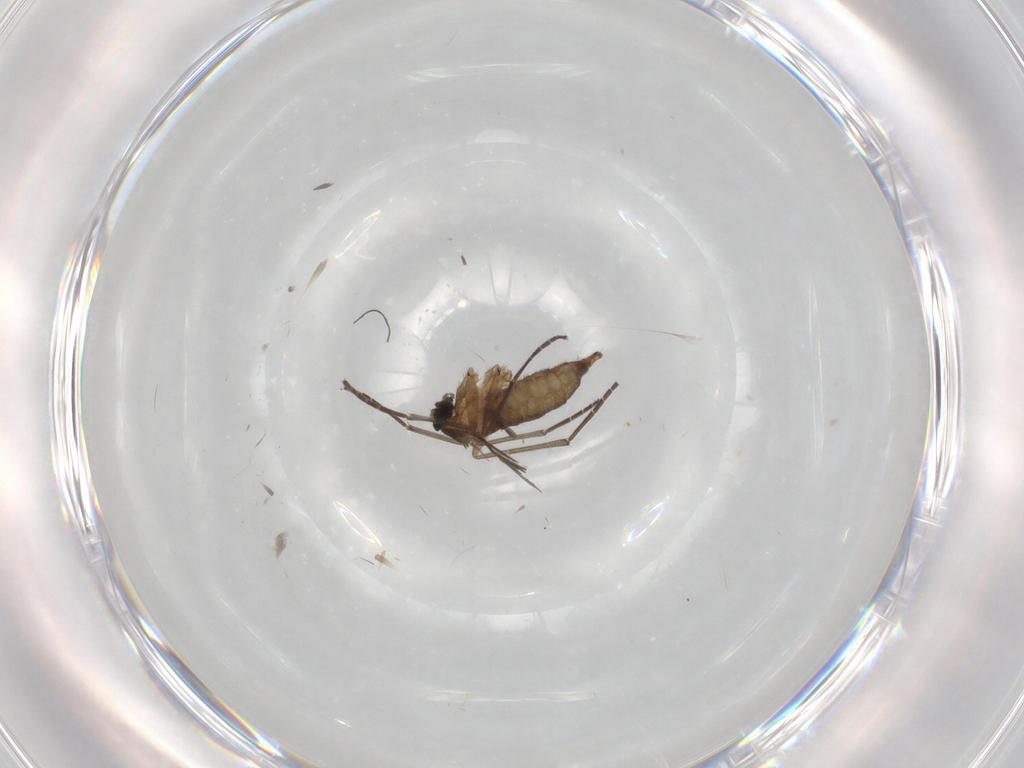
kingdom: Animalia
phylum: Arthropoda
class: Insecta
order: Diptera
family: Sciaridae
